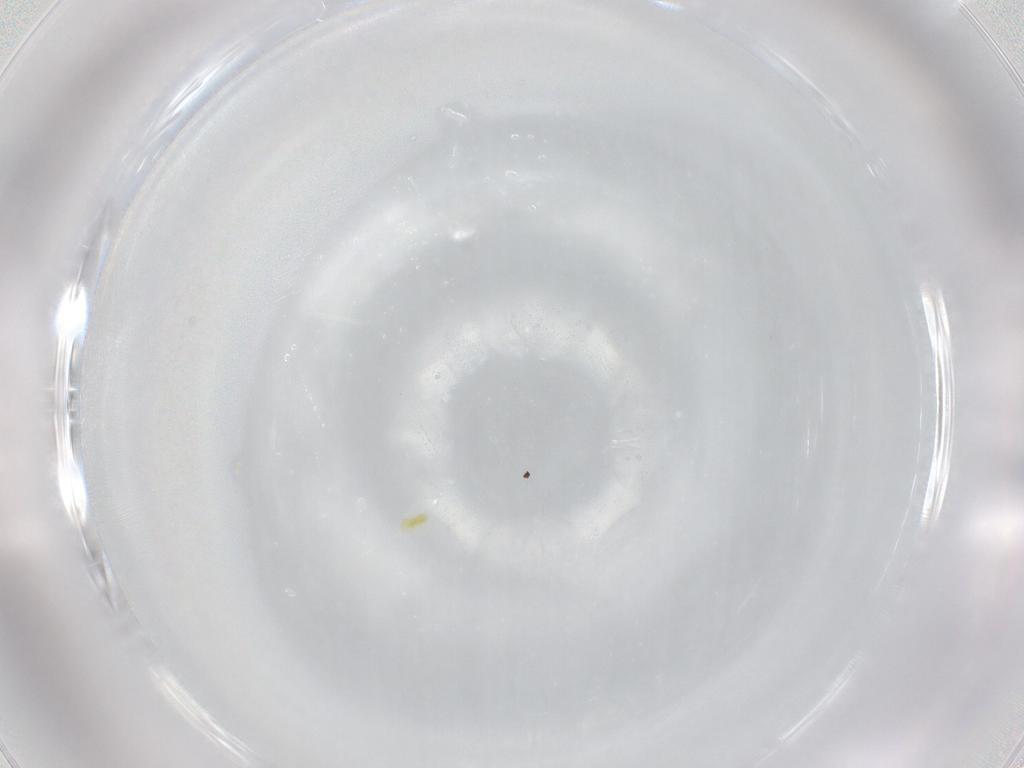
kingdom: Animalia
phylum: Arthropoda
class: Arachnida
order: Trombidiformes
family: Eupodidae
